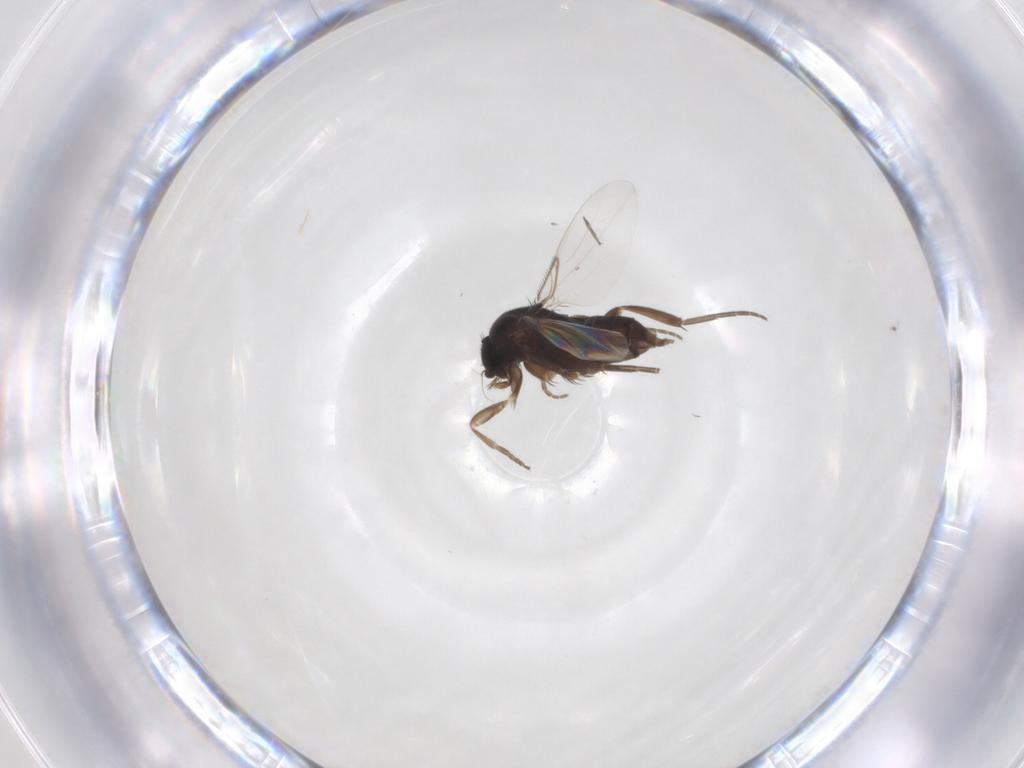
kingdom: Animalia
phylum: Arthropoda
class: Insecta
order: Diptera
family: Phoridae
